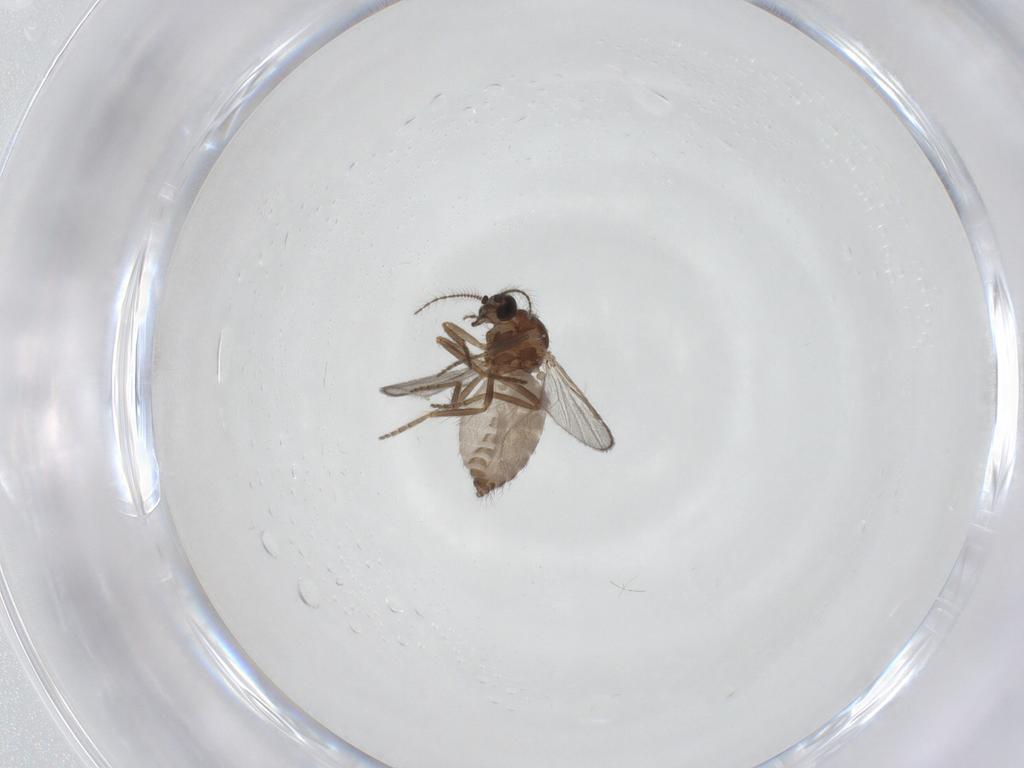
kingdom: Animalia
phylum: Arthropoda
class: Insecta
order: Diptera
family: Ceratopogonidae
